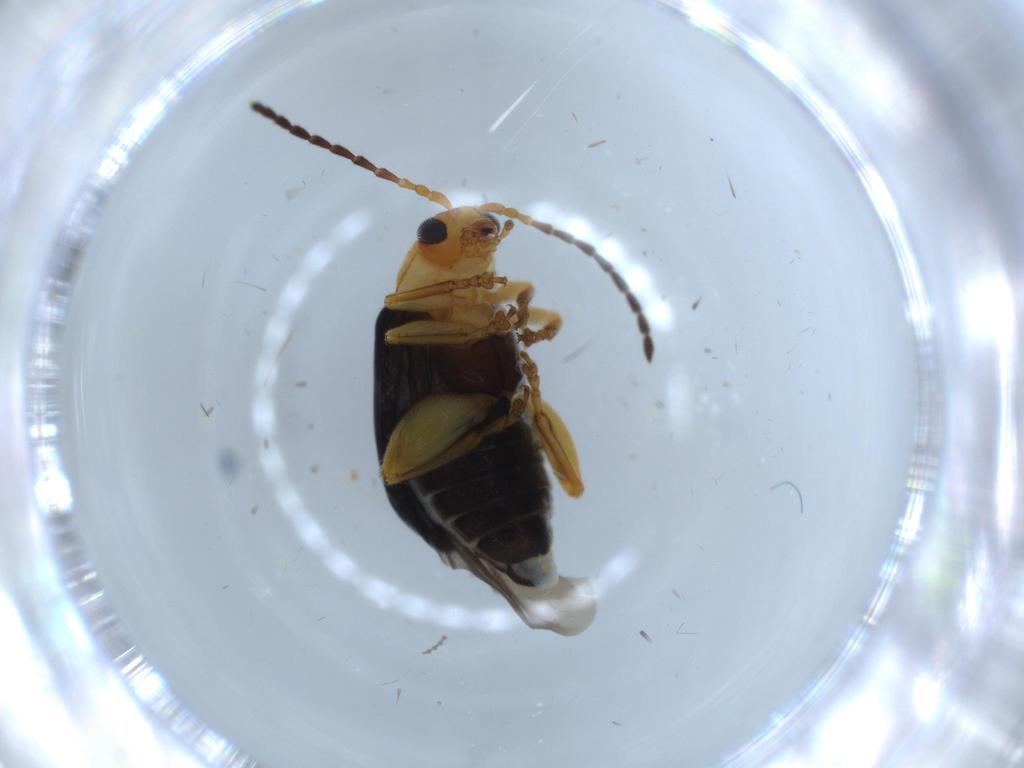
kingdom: Animalia
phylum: Arthropoda
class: Insecta
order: Coleoptera
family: Chrysomelidae
